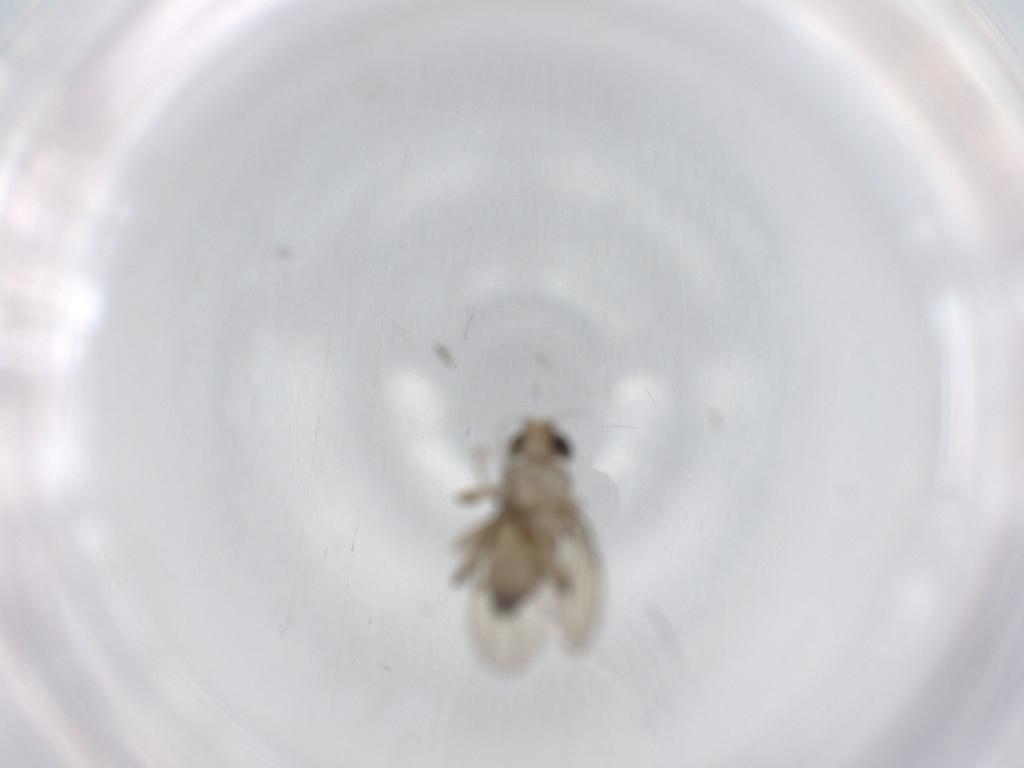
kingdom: Animalia
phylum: Arthropoda
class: Insecta
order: Diptera
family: Phoridae
